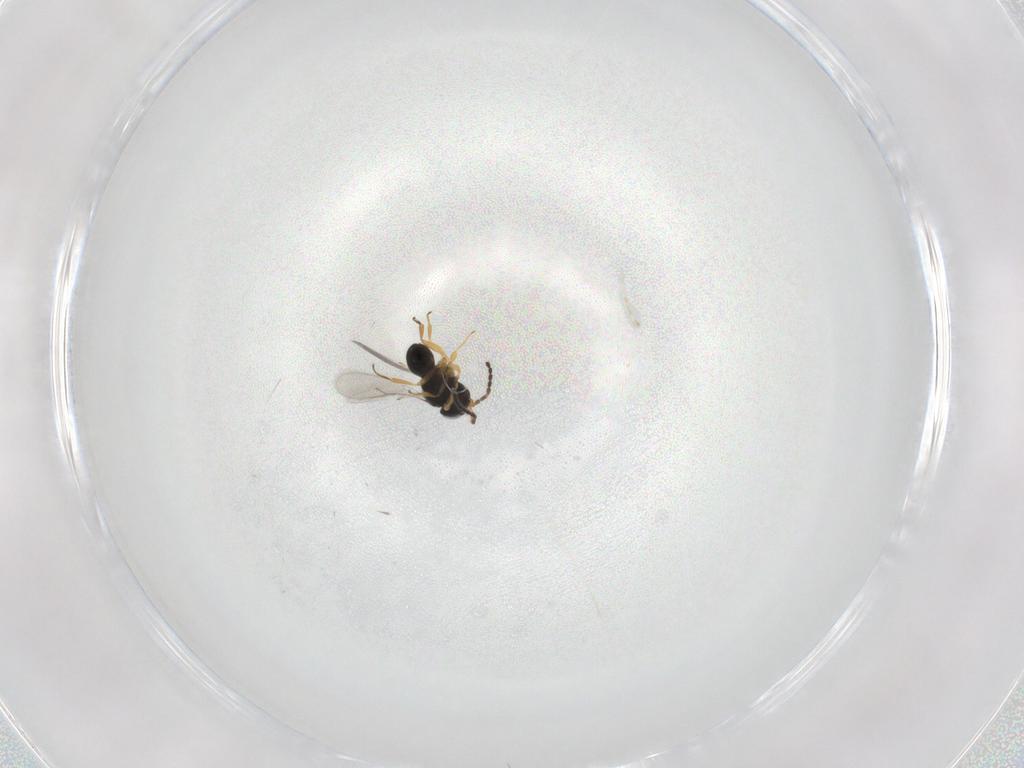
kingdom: Animalia
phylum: Arthropoda
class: Insecta
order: Hymenoptera
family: Scelionidae
